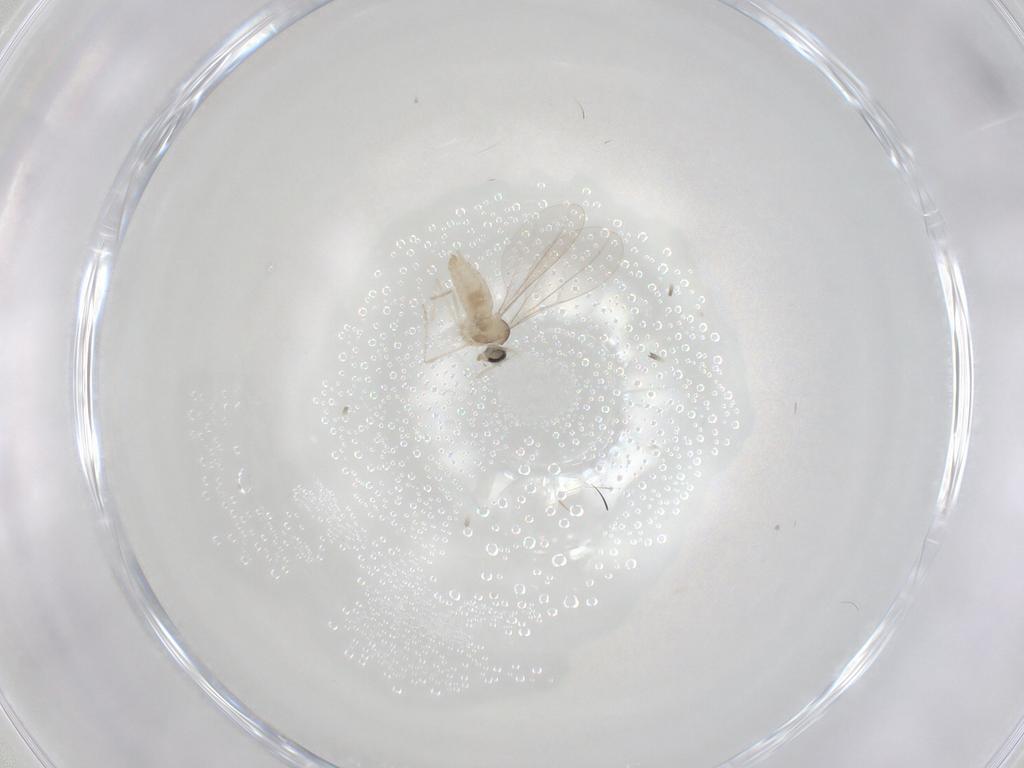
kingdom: Animalia
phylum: Arthropoda
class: Insecta
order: Diptera
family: Cecidomyiidae
